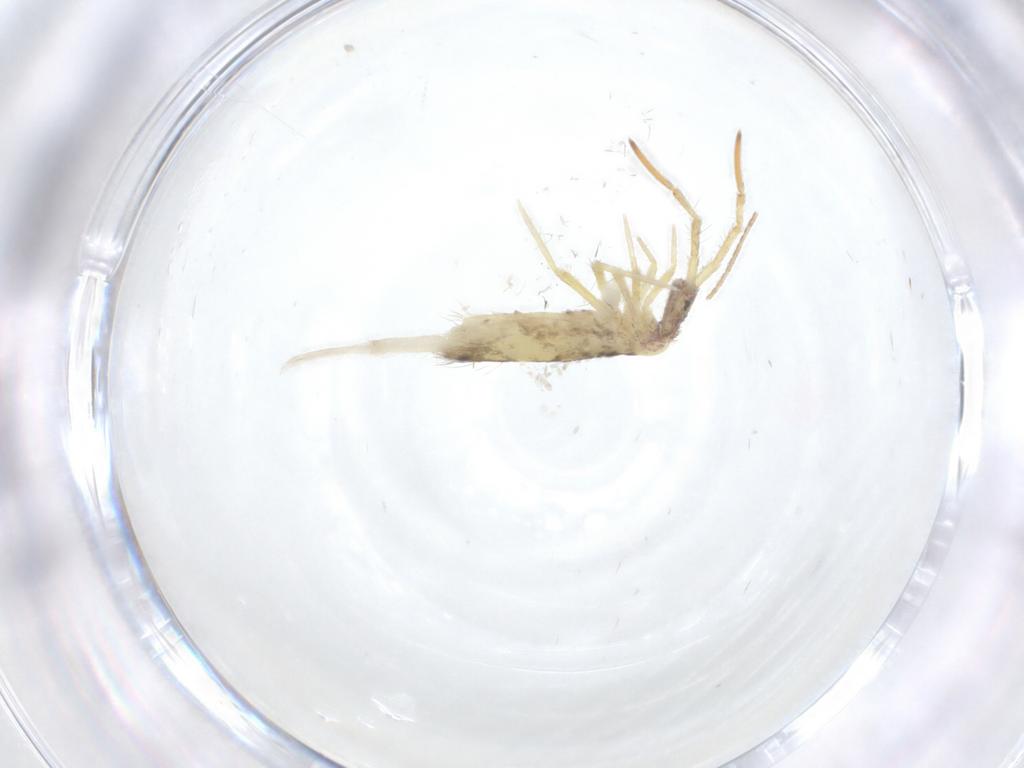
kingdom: Animalia
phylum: Arthropoda
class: Collembola
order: Entomobryomorpha
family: Entomobryidae
